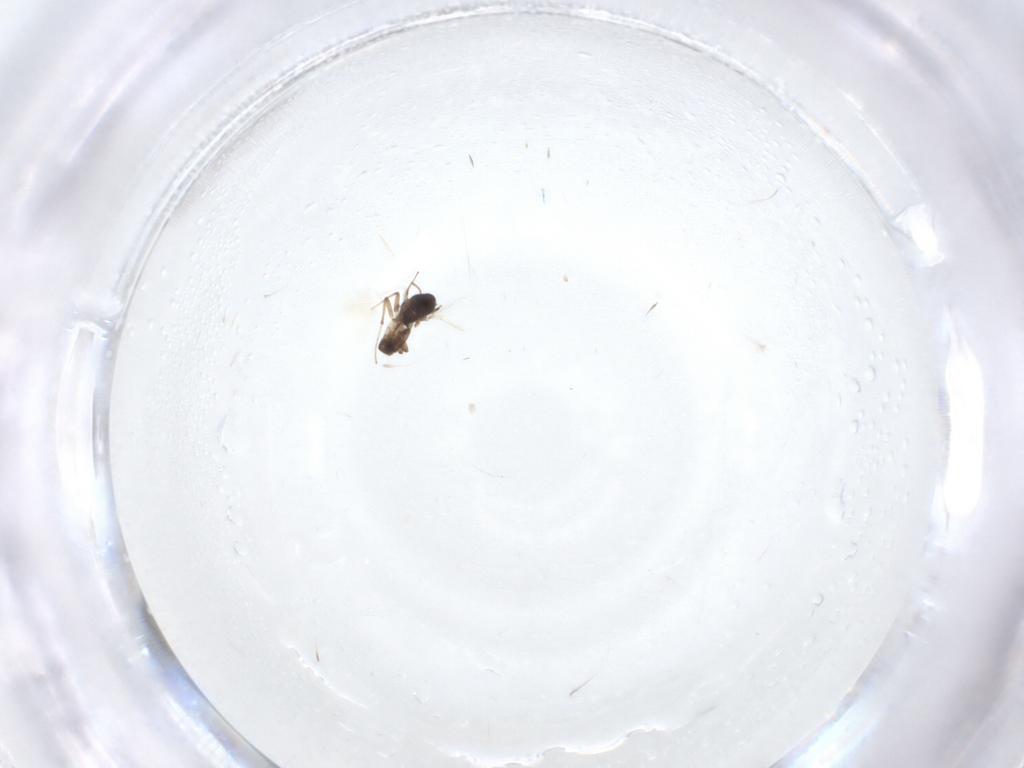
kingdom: Animalia
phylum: Arthropoda
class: Insecta
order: Diptera
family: Chironomidae
